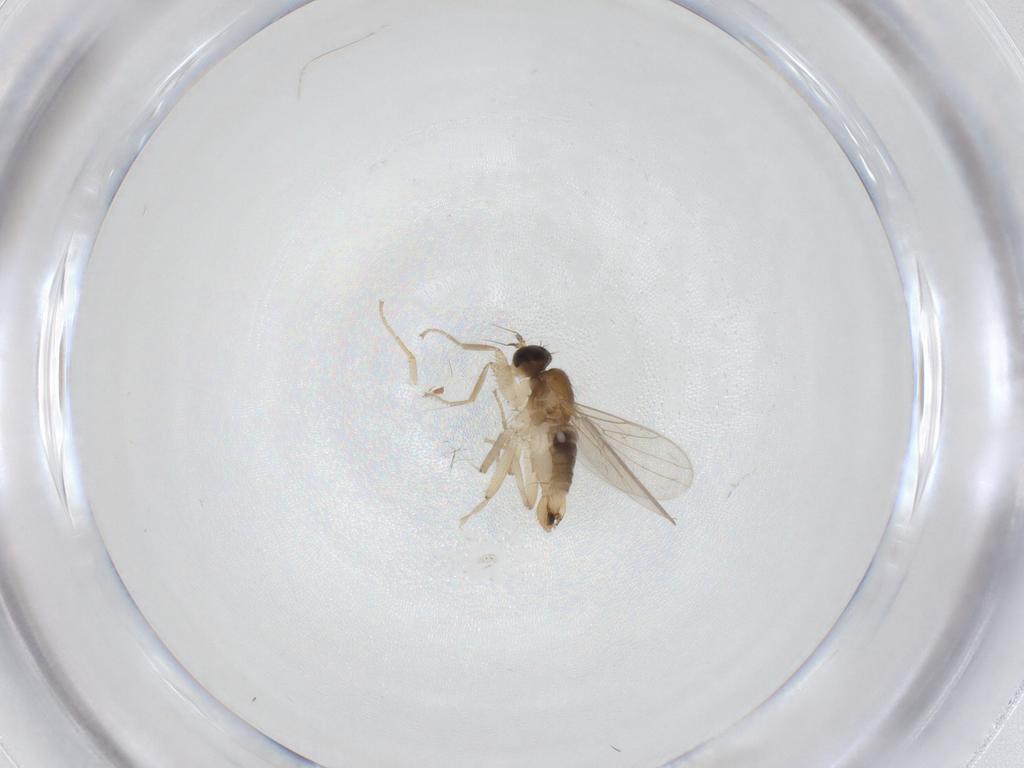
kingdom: Animalia
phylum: Arthropoda
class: Insecta
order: Diptera
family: Hybotidae
